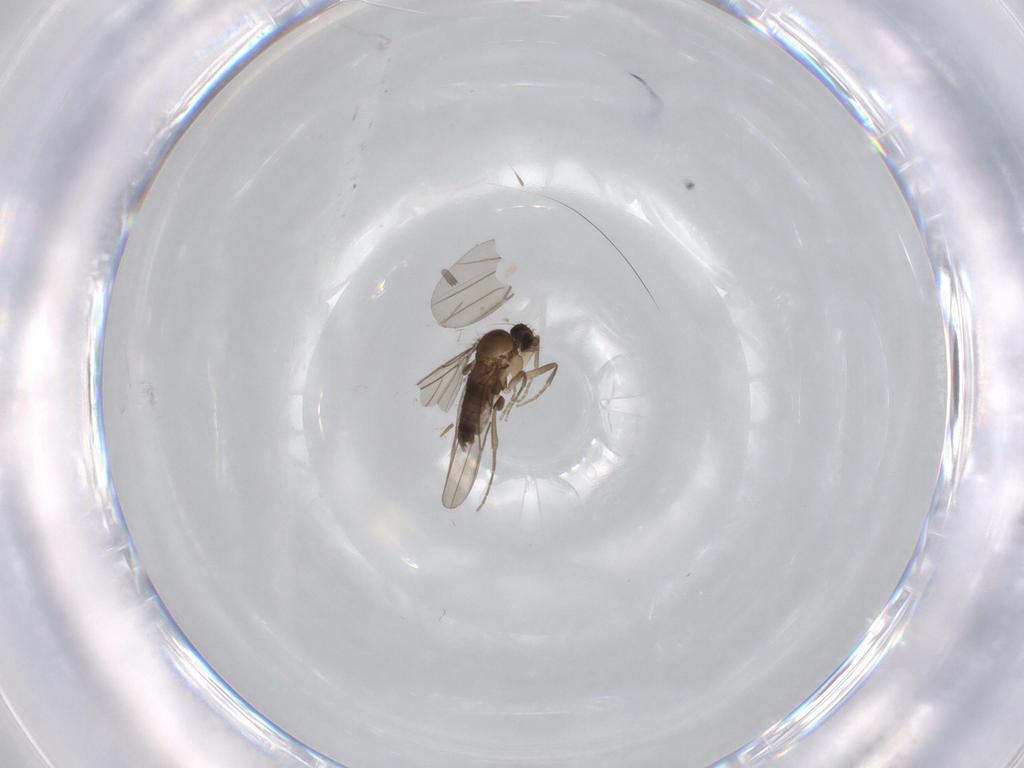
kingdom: Animalia
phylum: Arthropoda
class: Insecta
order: Diptera
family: Phoridae
